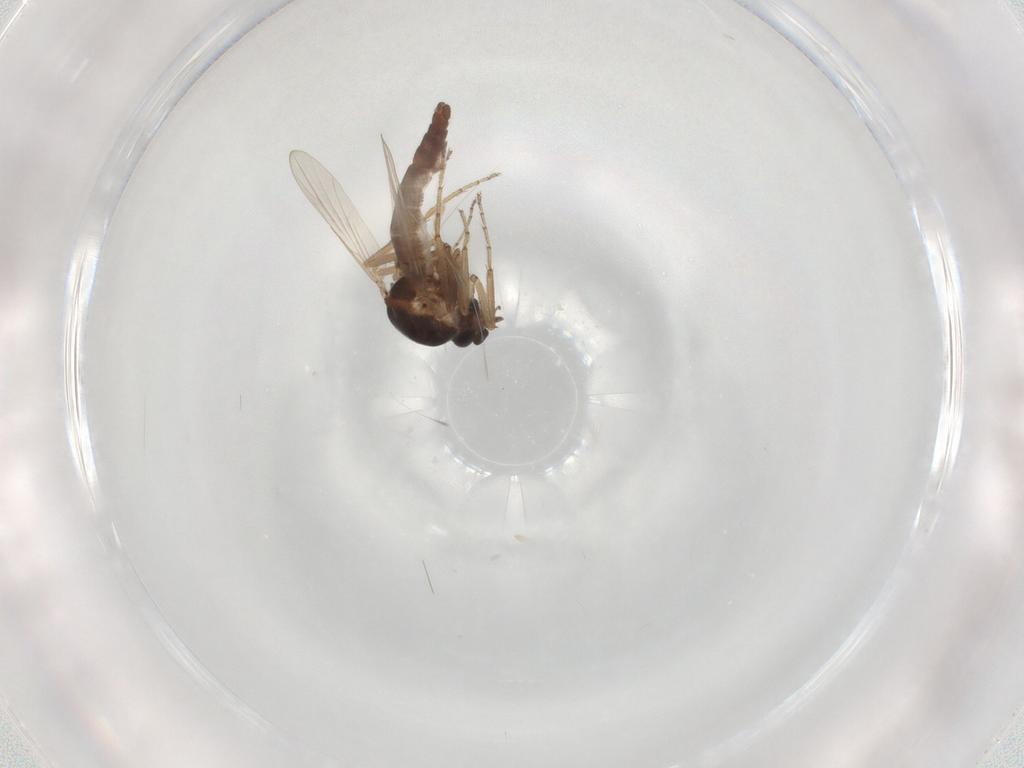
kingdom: Animalia
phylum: Arthropoda
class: Insecta
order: Diptera
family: Ceratopogonidae
